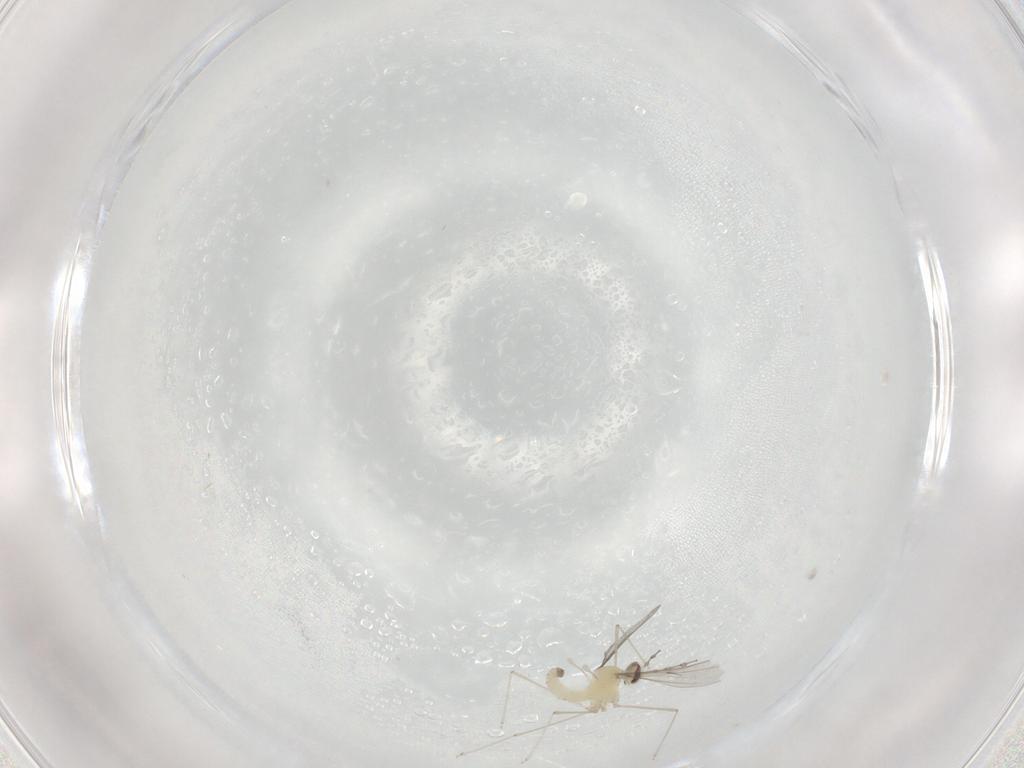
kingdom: Animalia
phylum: Arthropoda
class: Insecta
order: Diptera
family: Cecidomyiidae
